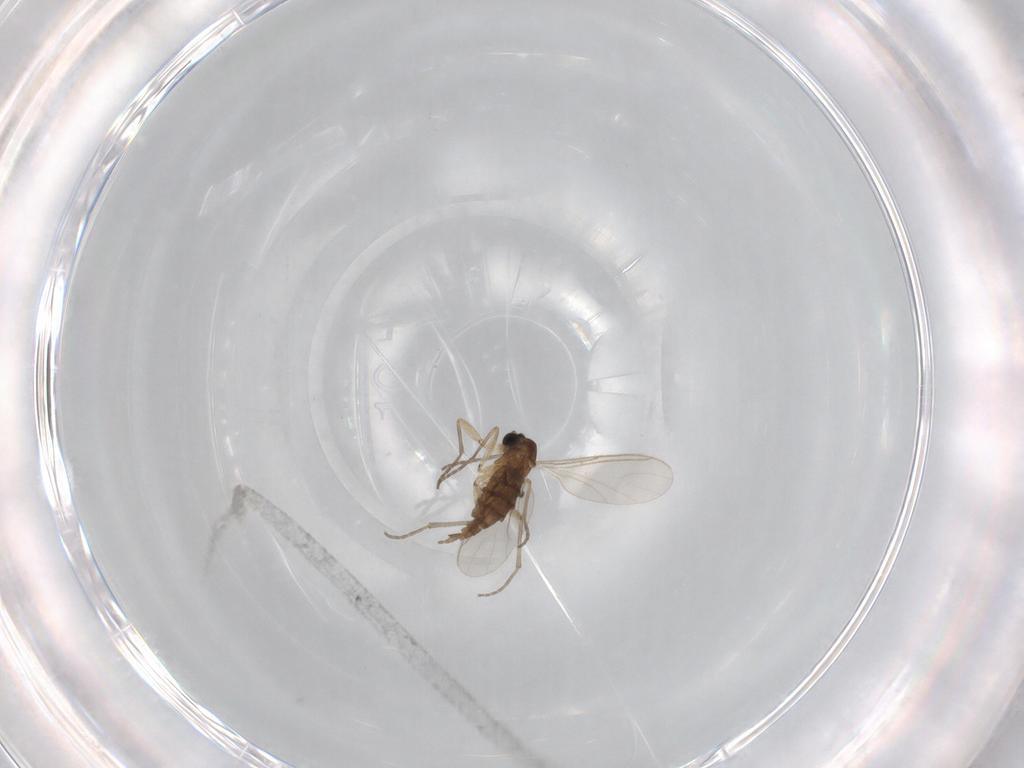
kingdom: Animalia
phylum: Arthropoda
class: Insecta
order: Diptera
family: Sciaridae
